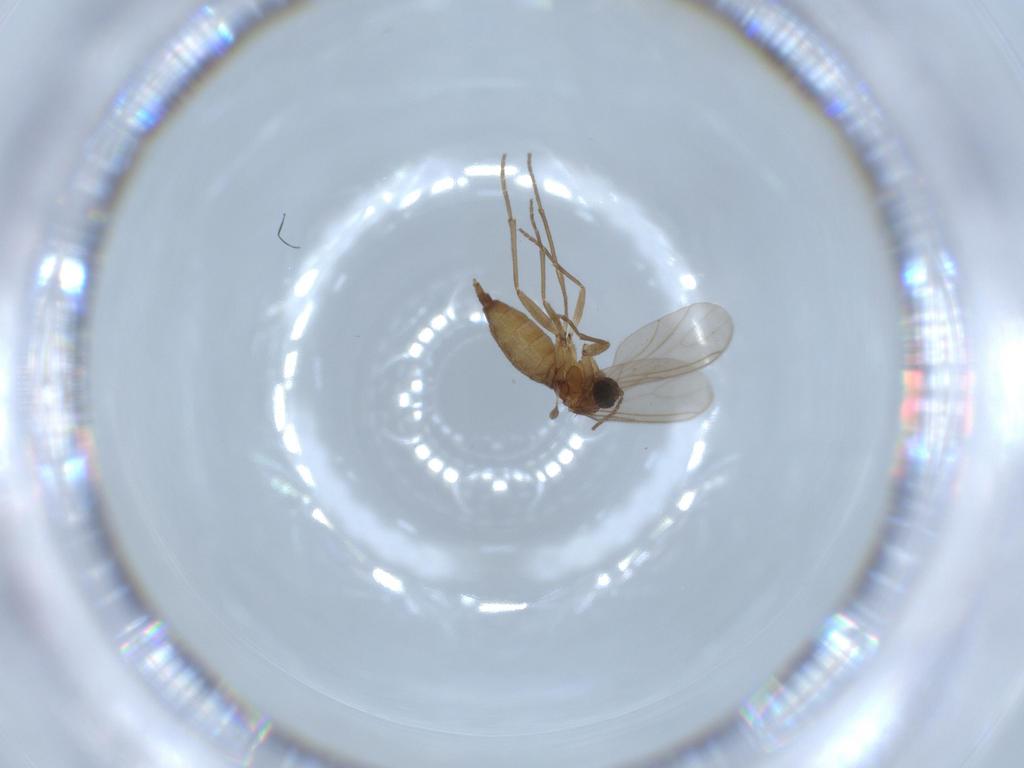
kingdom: Animalia
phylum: Arthropoda
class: Insecta
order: Diptera
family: Sciaridae
